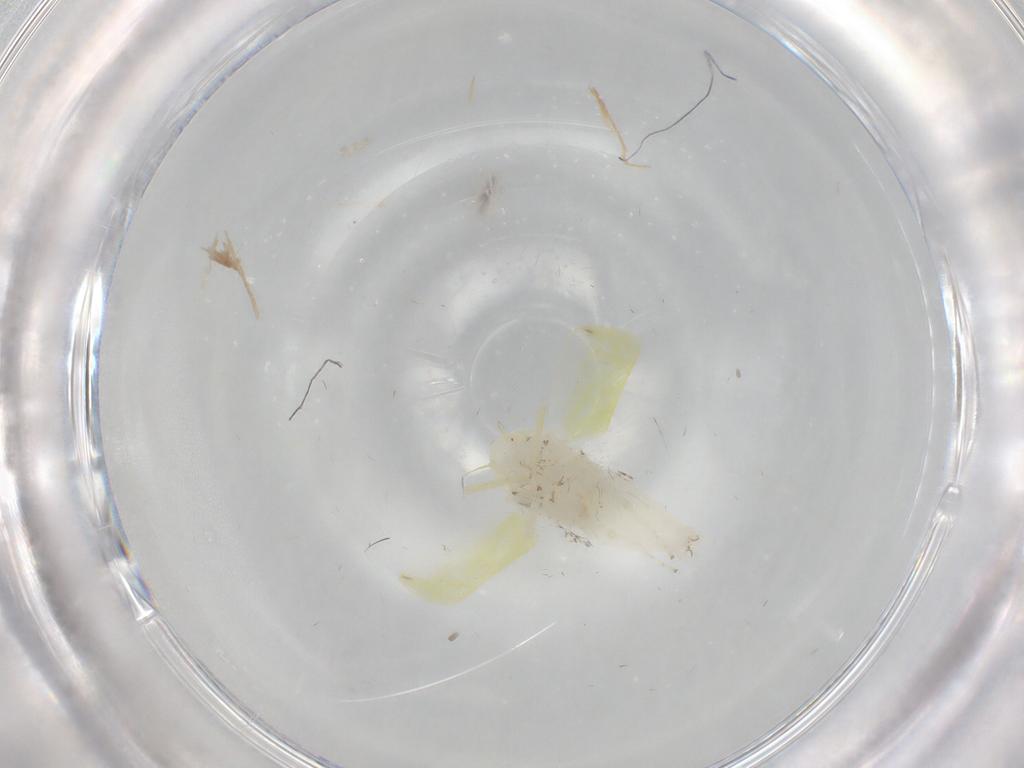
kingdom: Animalia
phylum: Arthropoda
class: Insecta
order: Hemiptera
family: Cicadellidae
